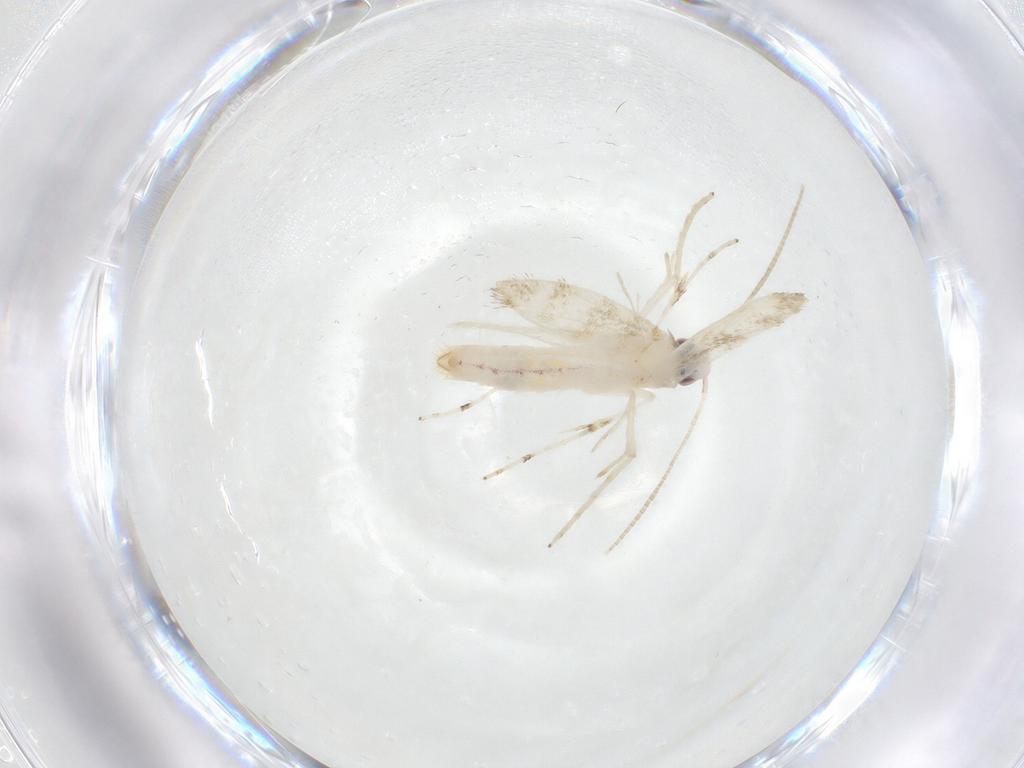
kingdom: Animalia
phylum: Arthropoda
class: Insecta
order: Lepidoptera
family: Gracillariidae
